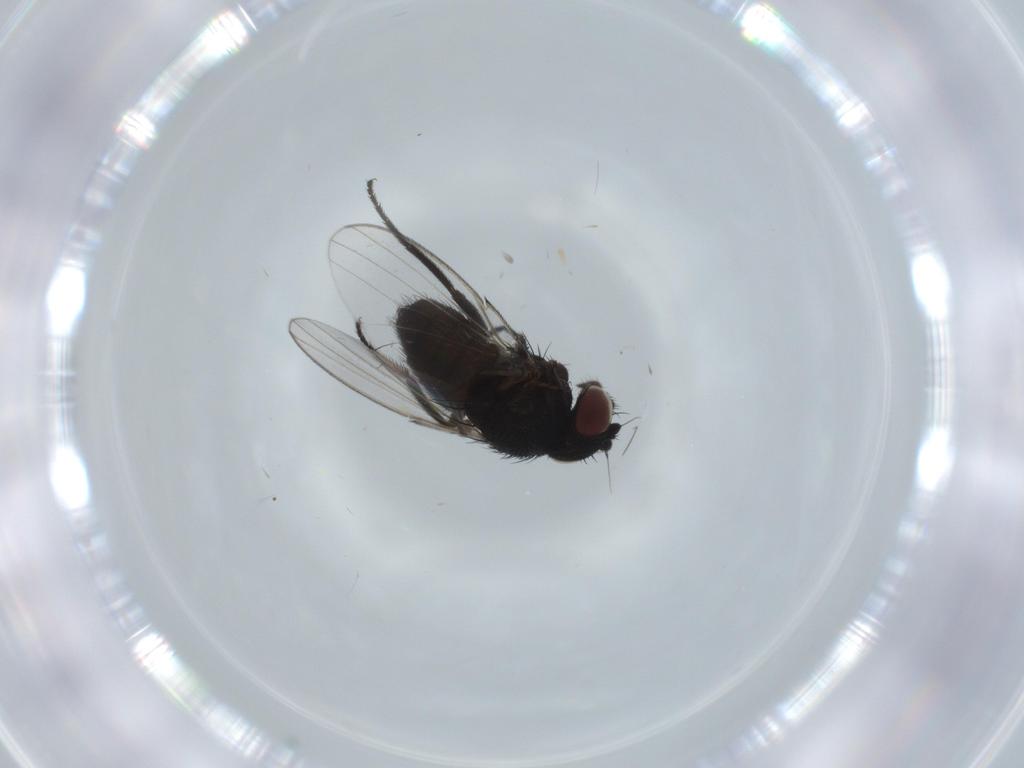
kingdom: Animalia
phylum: Arthropoda
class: Insecta
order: Diptera
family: Milichiidae
